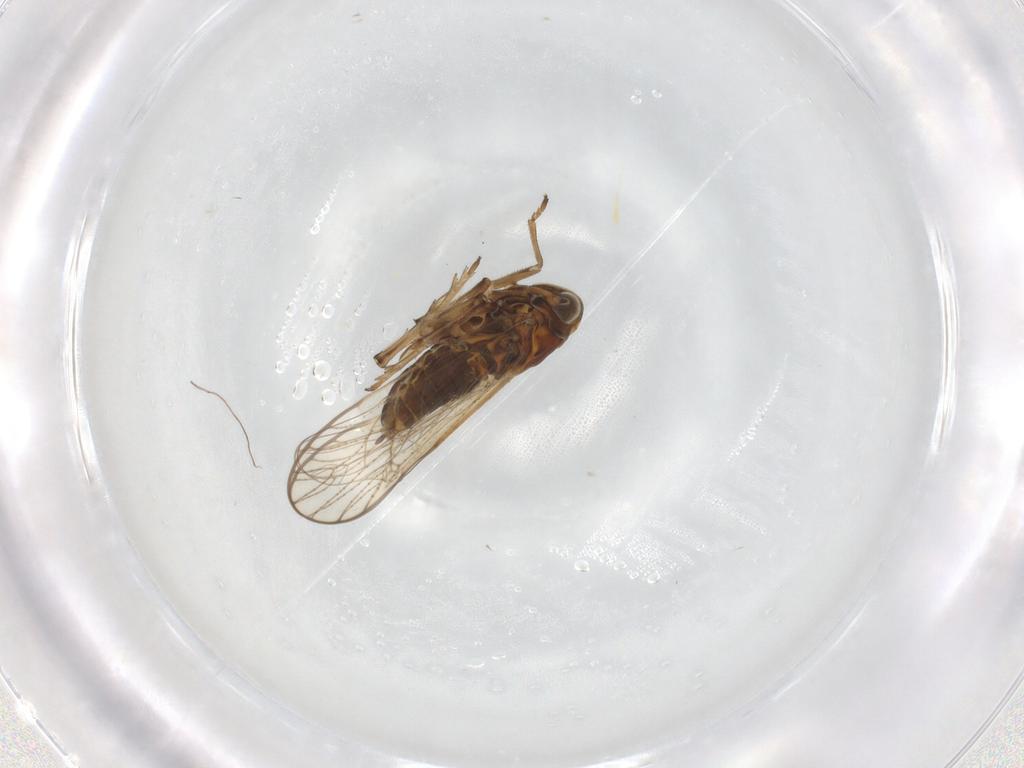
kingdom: Animalia
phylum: Arthropoda
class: Insecta
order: Hemiptera
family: Delphacidae
